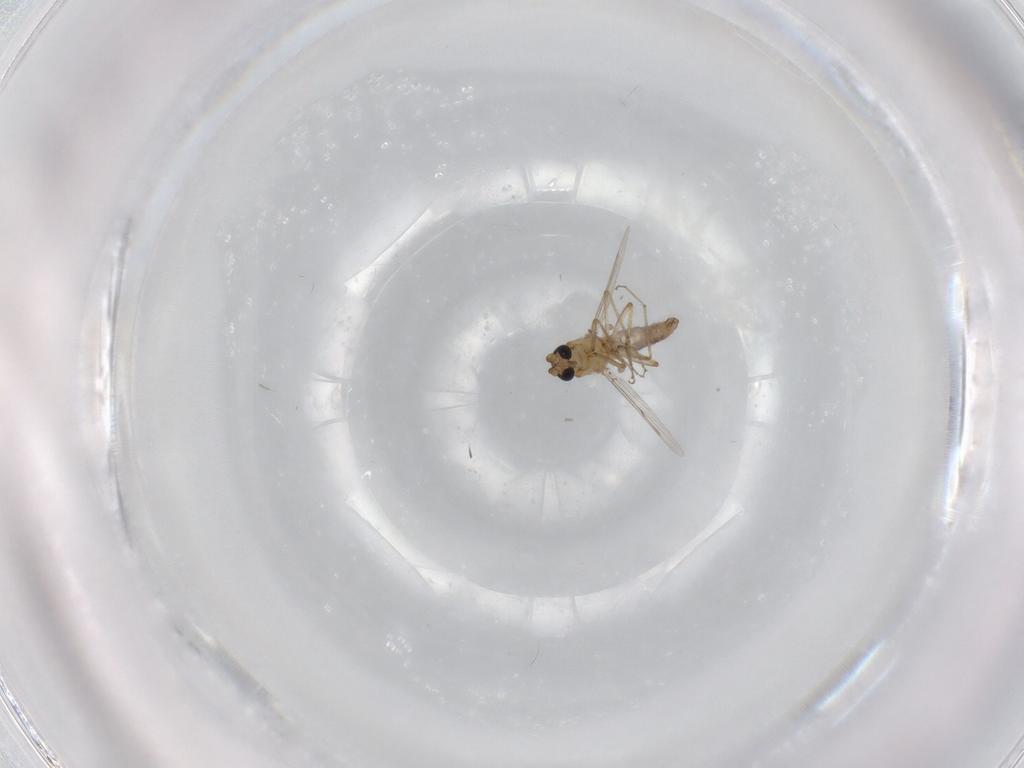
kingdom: Animalia
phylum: Arthropoda
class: Insecta
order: Diptera
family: Ceratopogonidae
